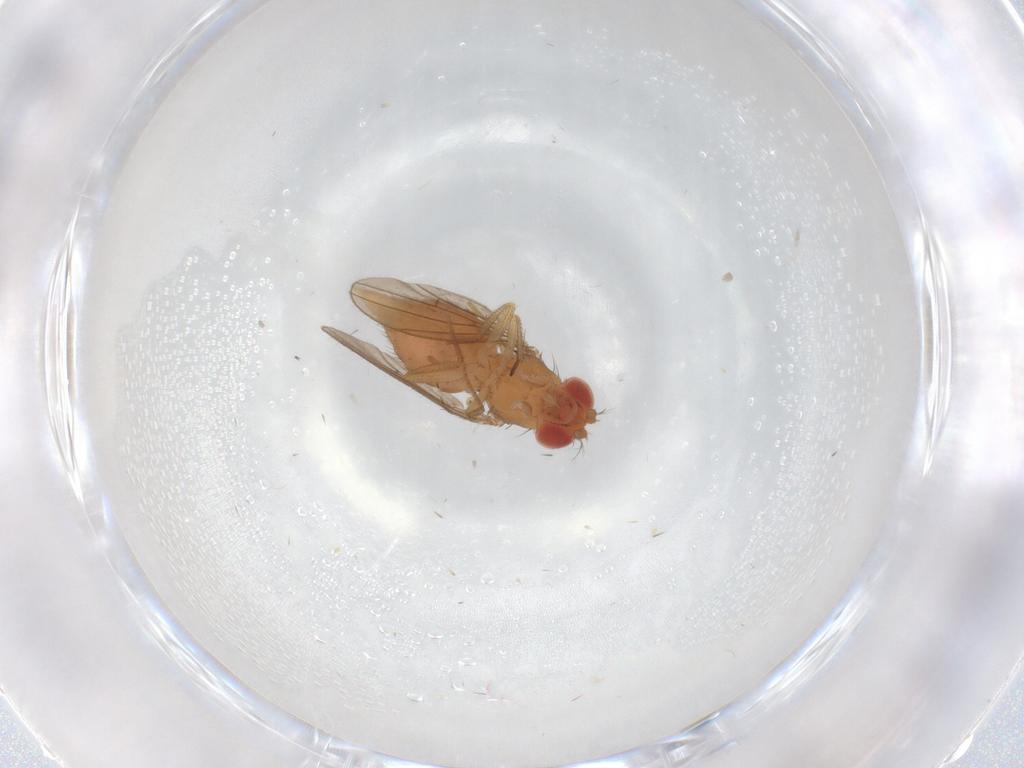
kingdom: Animalia
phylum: Arthropoda
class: Insecta
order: Diptera
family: Drosophilidae
